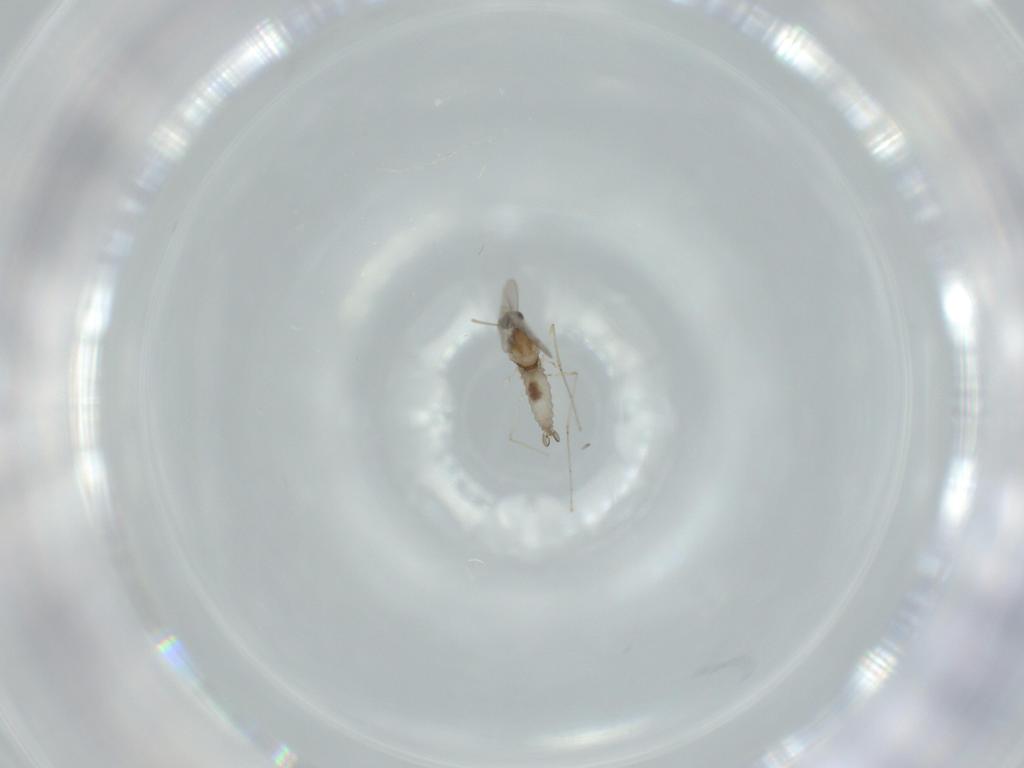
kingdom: Animalia
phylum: Arthropoda
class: Insecta
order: Diptera
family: Cecidomyiidae
